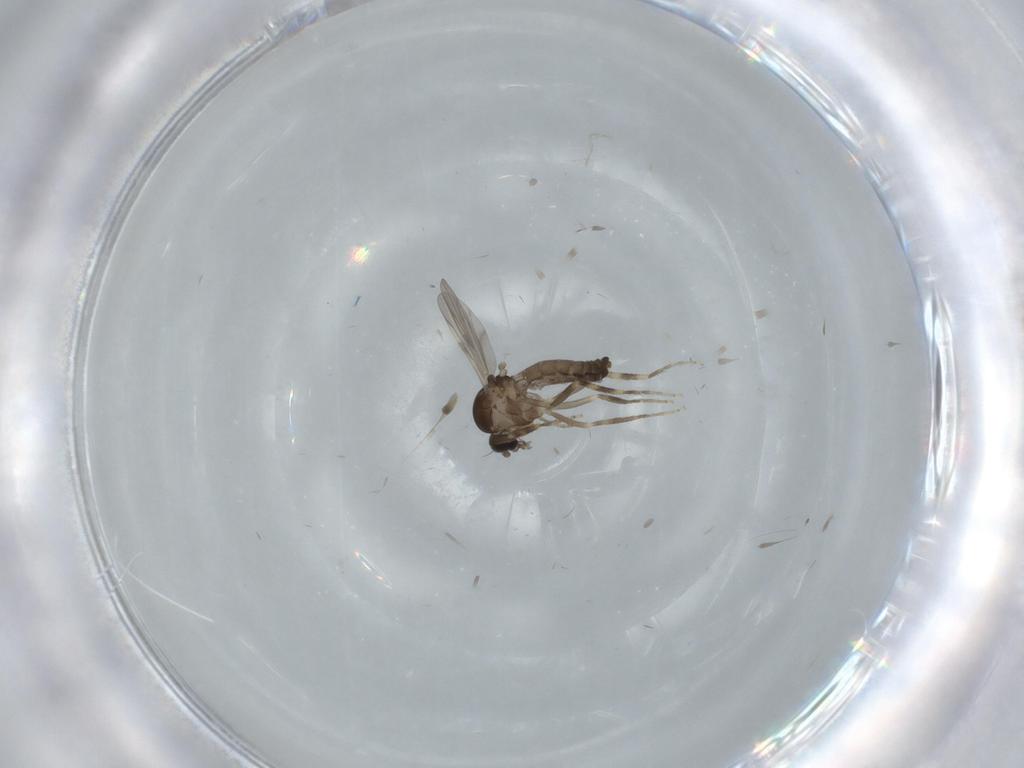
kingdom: Animalia
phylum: Arthropoda
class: Insecta
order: Diptera
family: Ceratopogonidae
